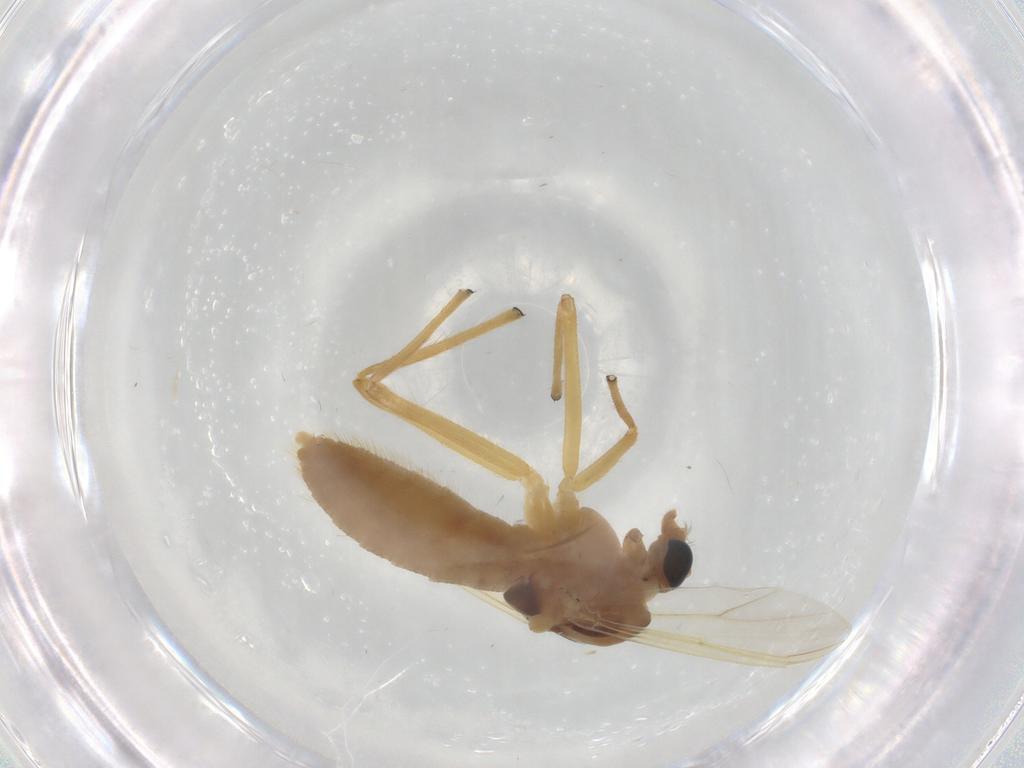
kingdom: Animalia
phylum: Arthropoda
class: Insecta
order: Diptera
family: Chironomidae
